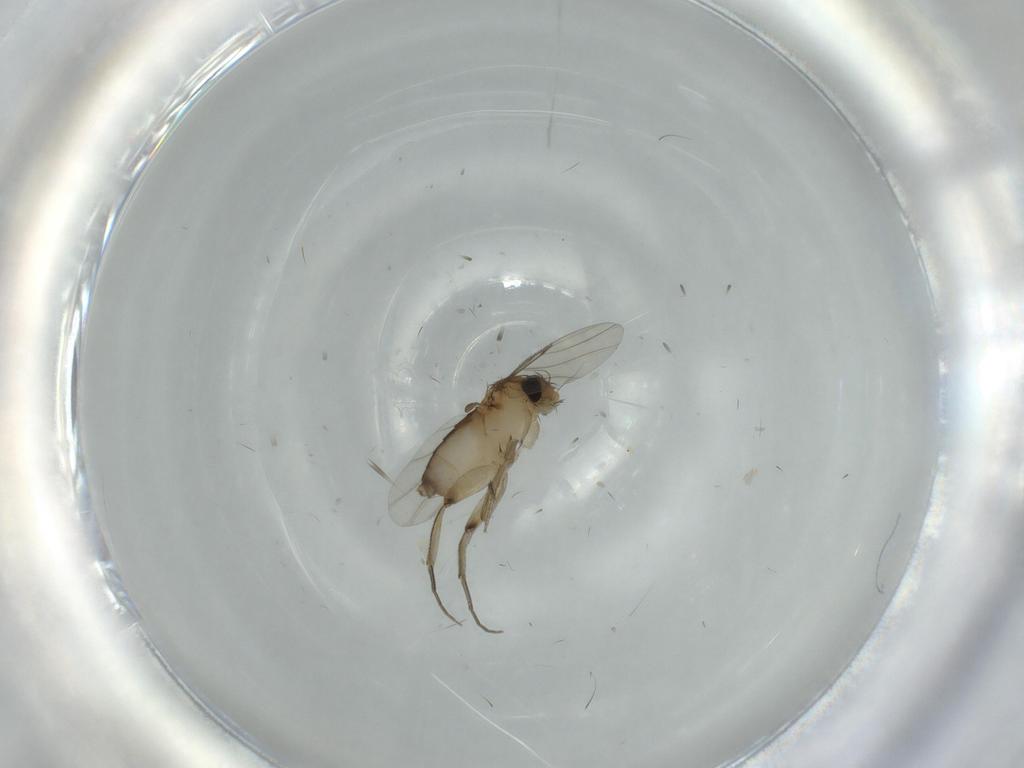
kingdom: Animalia
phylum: Arthropoda
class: Insecta
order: Diptera
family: Phoridae
